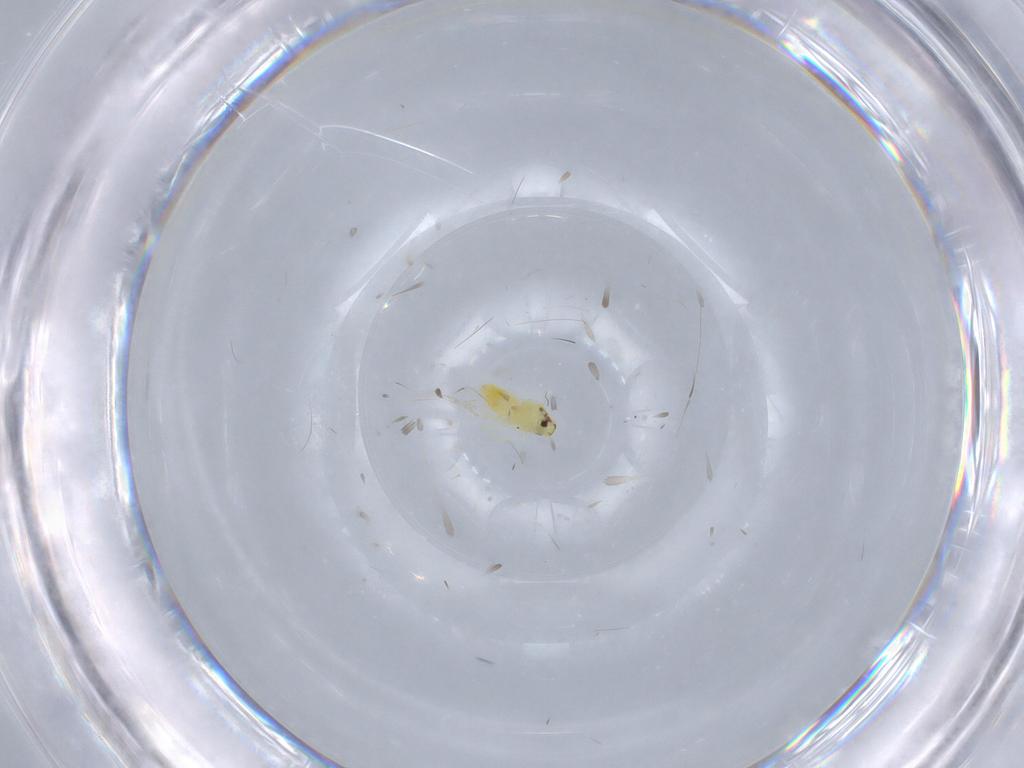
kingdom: Animalia
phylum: Arthropoda
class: Insecta
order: Hemiptera
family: Aleyrodidae
